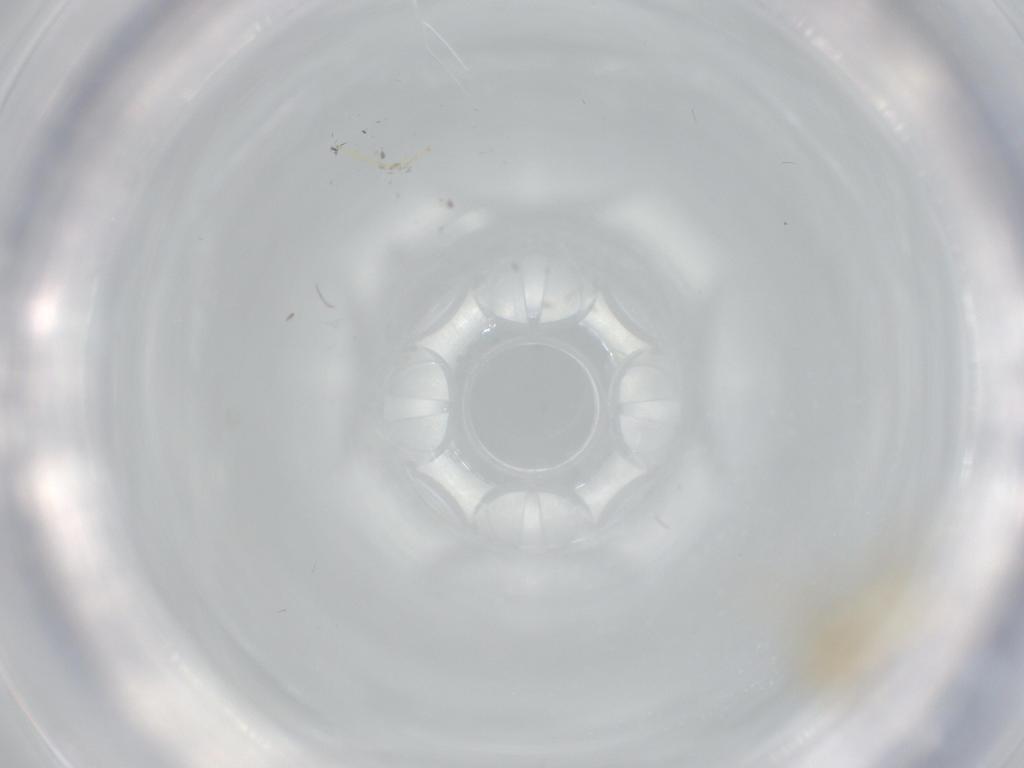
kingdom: Animalia
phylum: Arthropoda
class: Insecta
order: Diptera
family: Chironomidae
